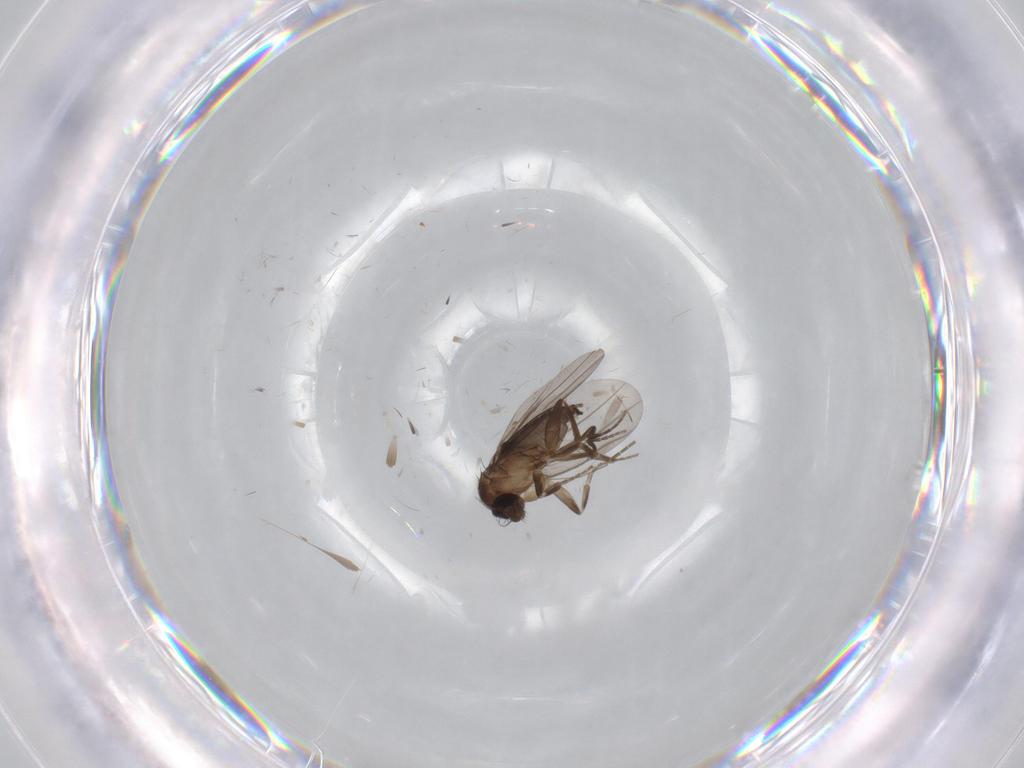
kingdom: Animalia
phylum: Arthropoda
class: Insecta
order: Diptera
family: Phoridae
